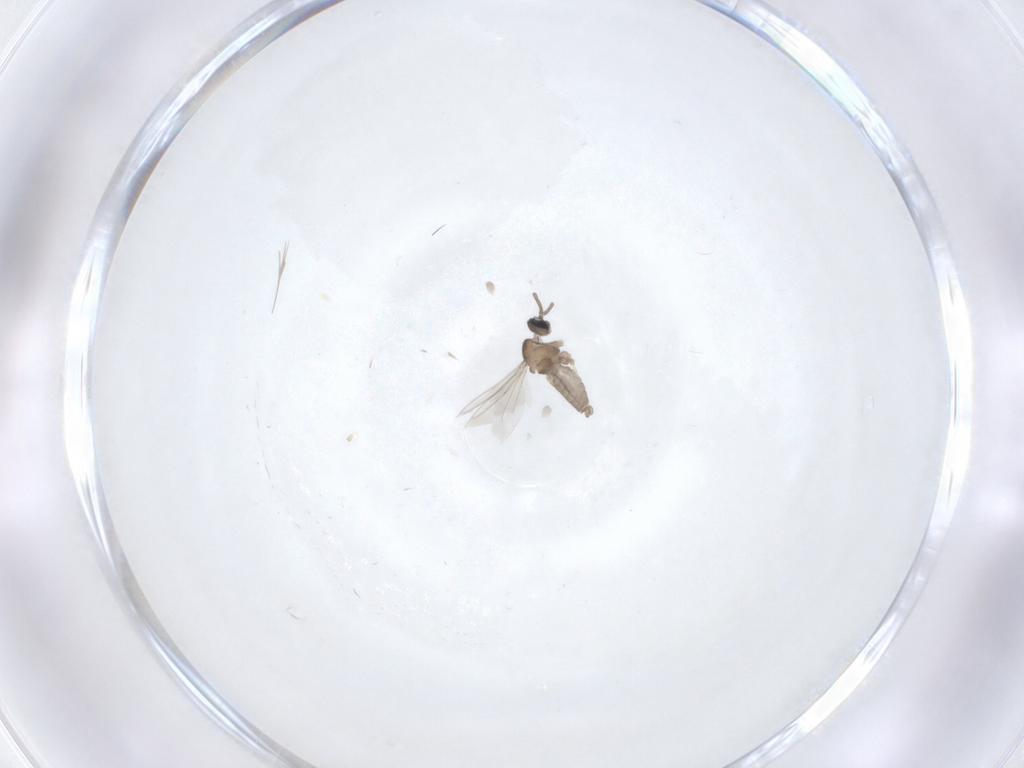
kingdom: Animalia
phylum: Arthropoda
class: Insecta
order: Diptera
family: Cecidomyiidae
